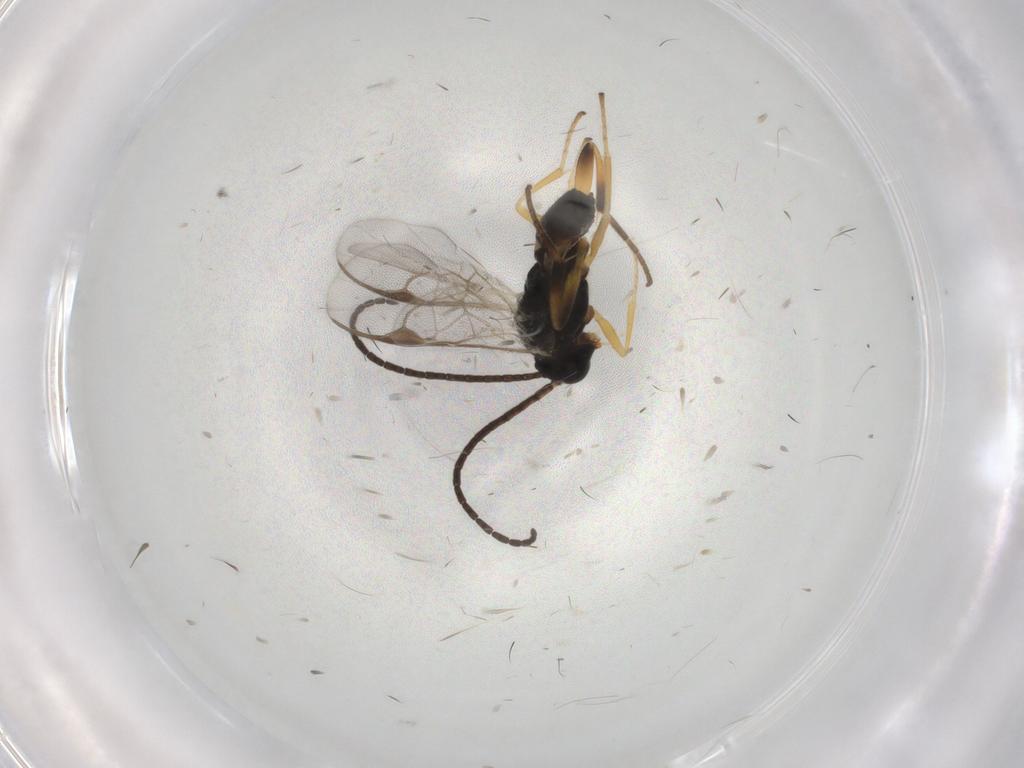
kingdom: Animalia
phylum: Arthropoda
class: Insecta
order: Hymenoptera
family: Braconidae
